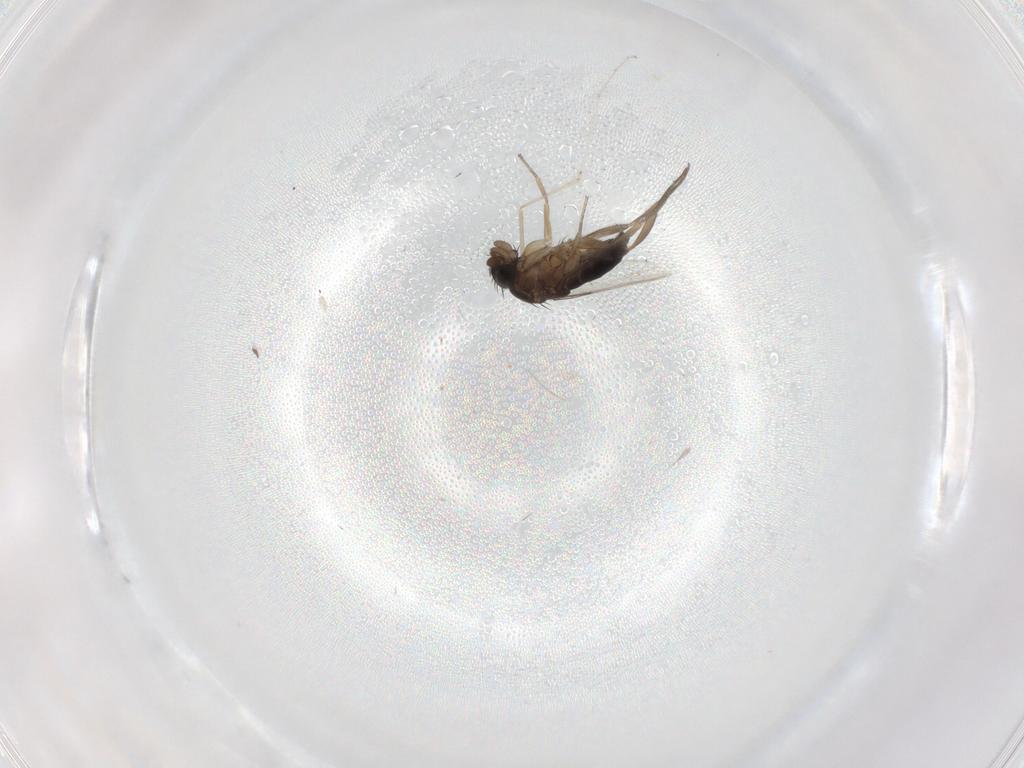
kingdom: Animalia
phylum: Arthropoda
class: Insecta
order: Diptera
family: Cecidomyiidae
